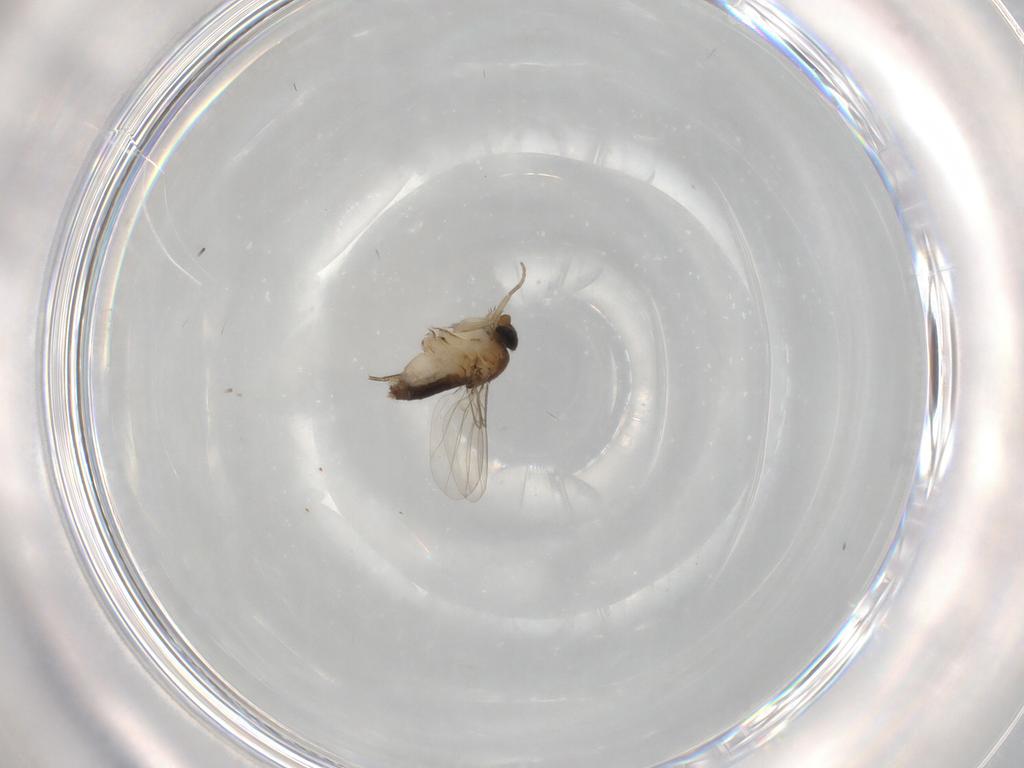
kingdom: Animalia
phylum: Arthropoda
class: Insecta
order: Diptera
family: Phoridae
